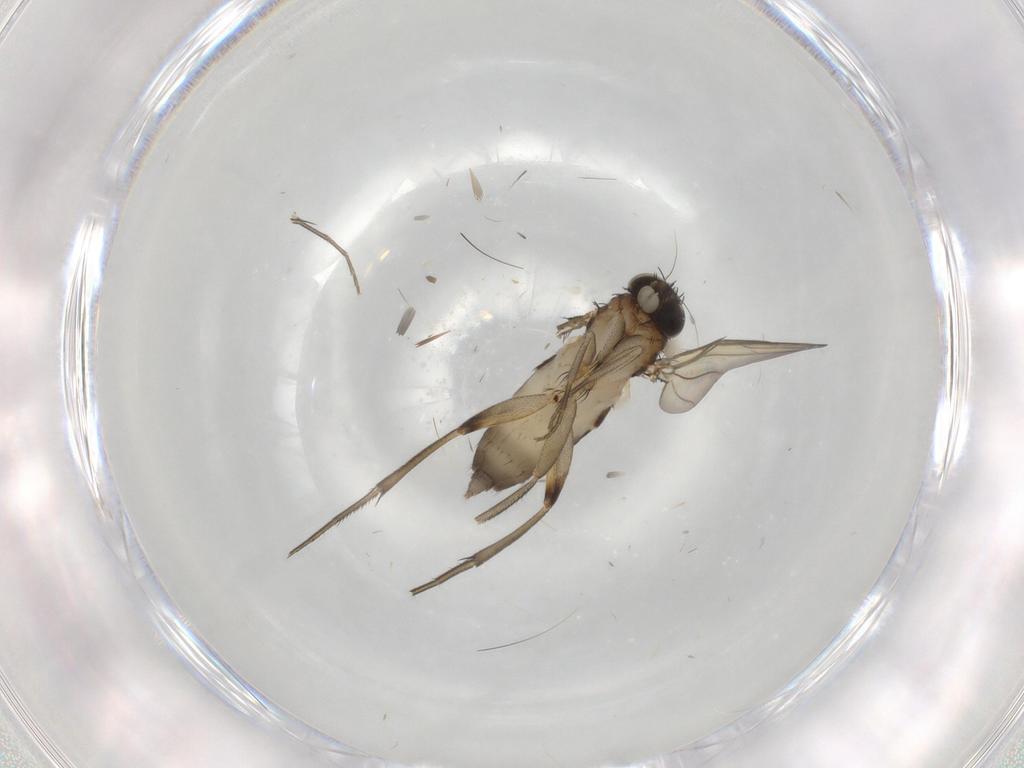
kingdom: Animalia
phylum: Arthropoda
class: Insecta
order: Diptera
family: Phoridae
